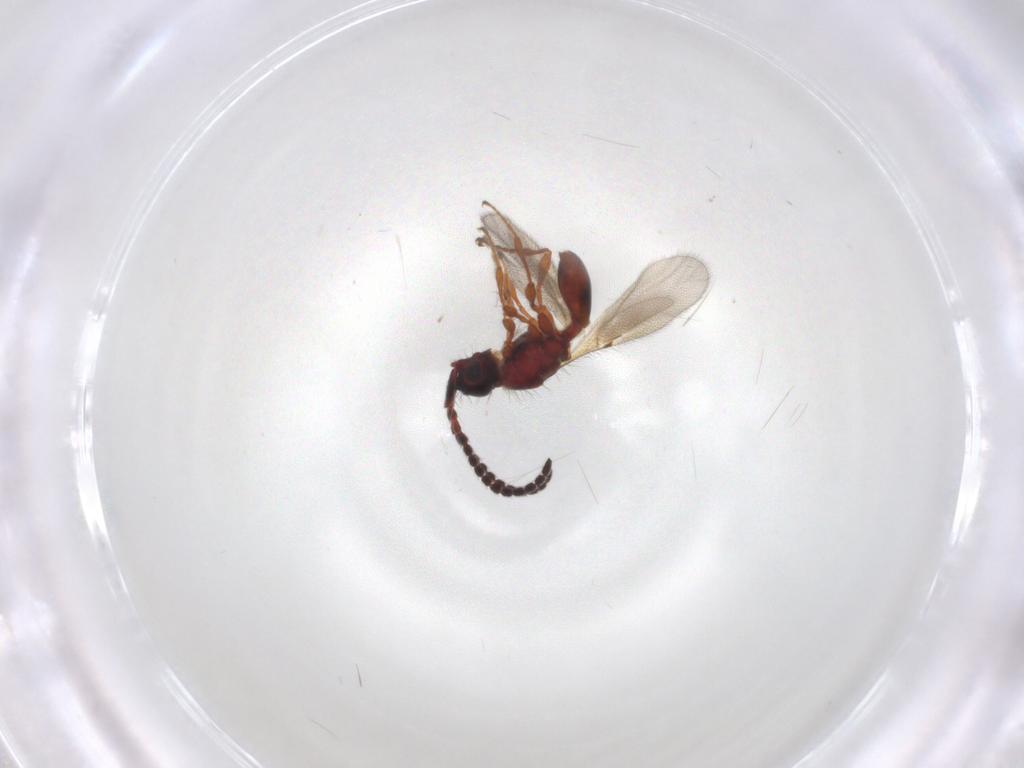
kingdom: Animalia
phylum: Arthropoda
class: Insecta
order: Hymenoptera
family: Diapriidae
